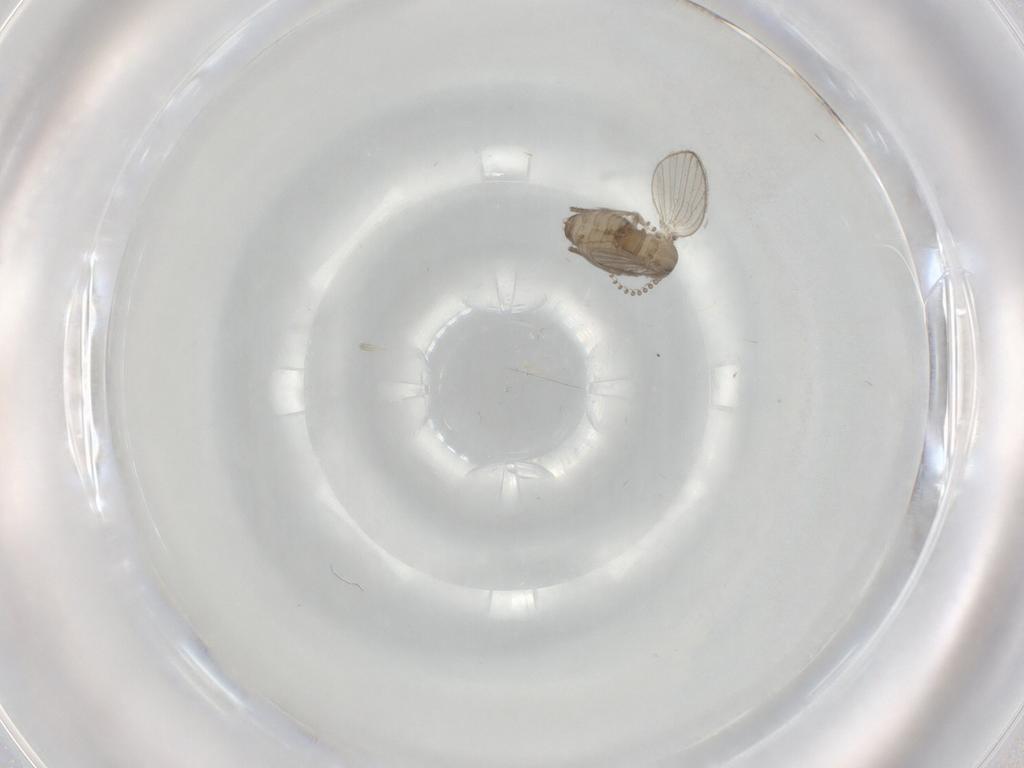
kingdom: Animalia
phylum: Arthropoda
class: Insecta
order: Diptera
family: Psychodidae
